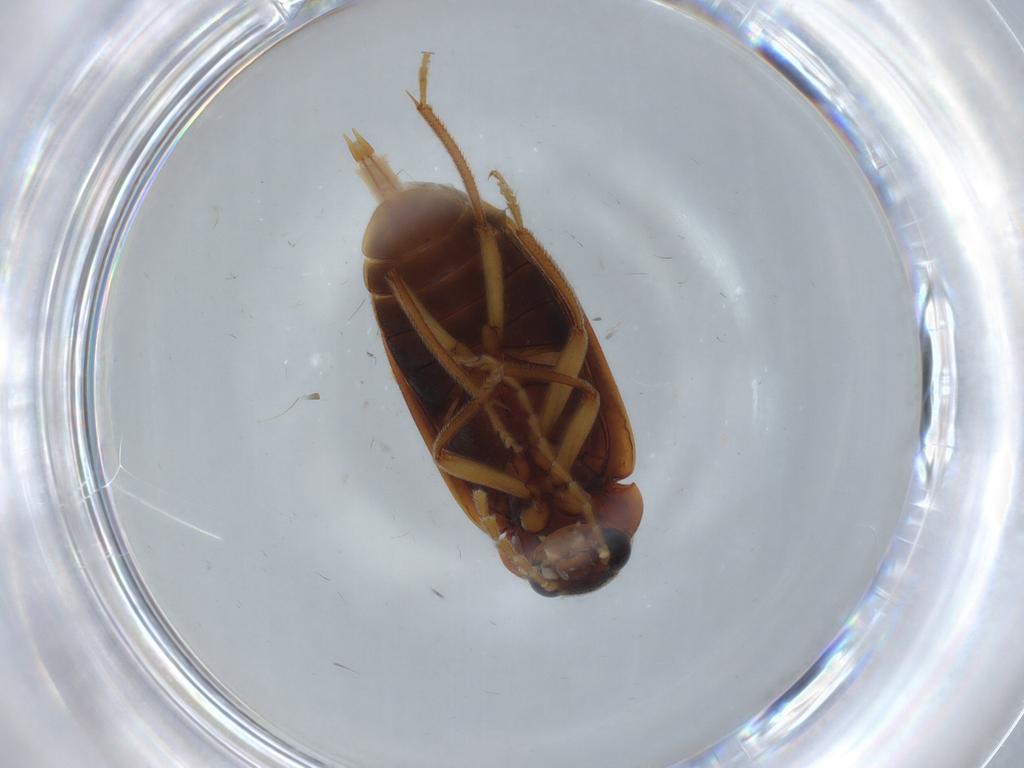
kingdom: Animalia
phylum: Arthropoda
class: Insecta
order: Coleoptera
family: Ptilodactylidae
